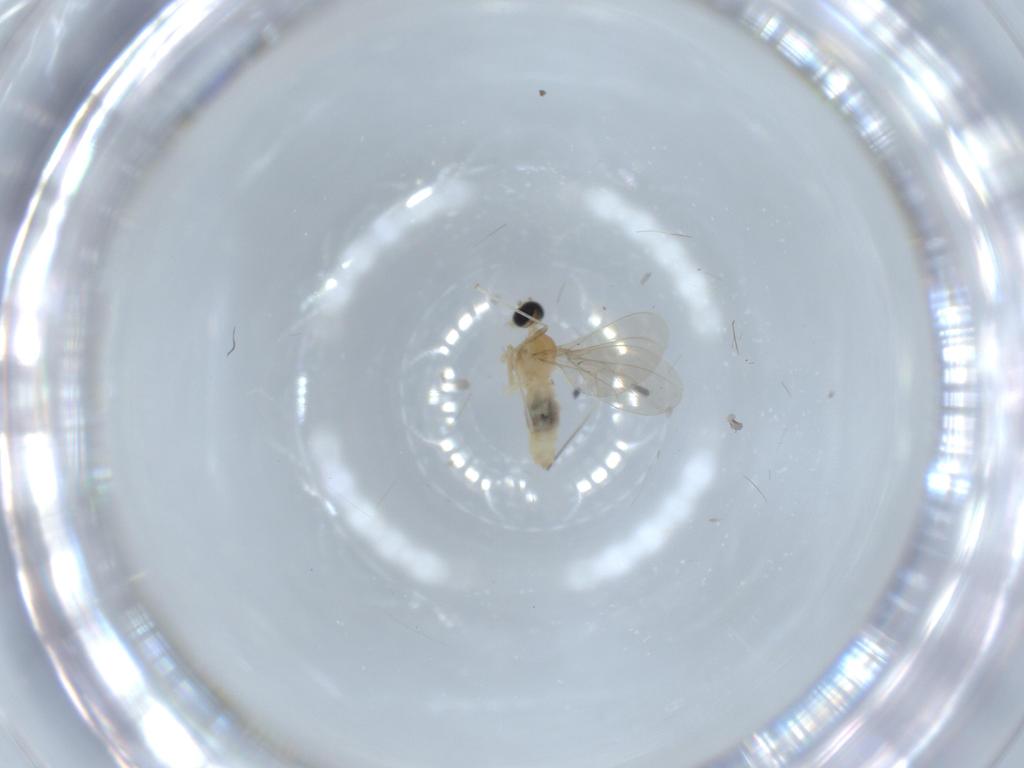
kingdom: Animalia
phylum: Arthropoda
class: Insecta
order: Diptera
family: Cecidomyiidae
